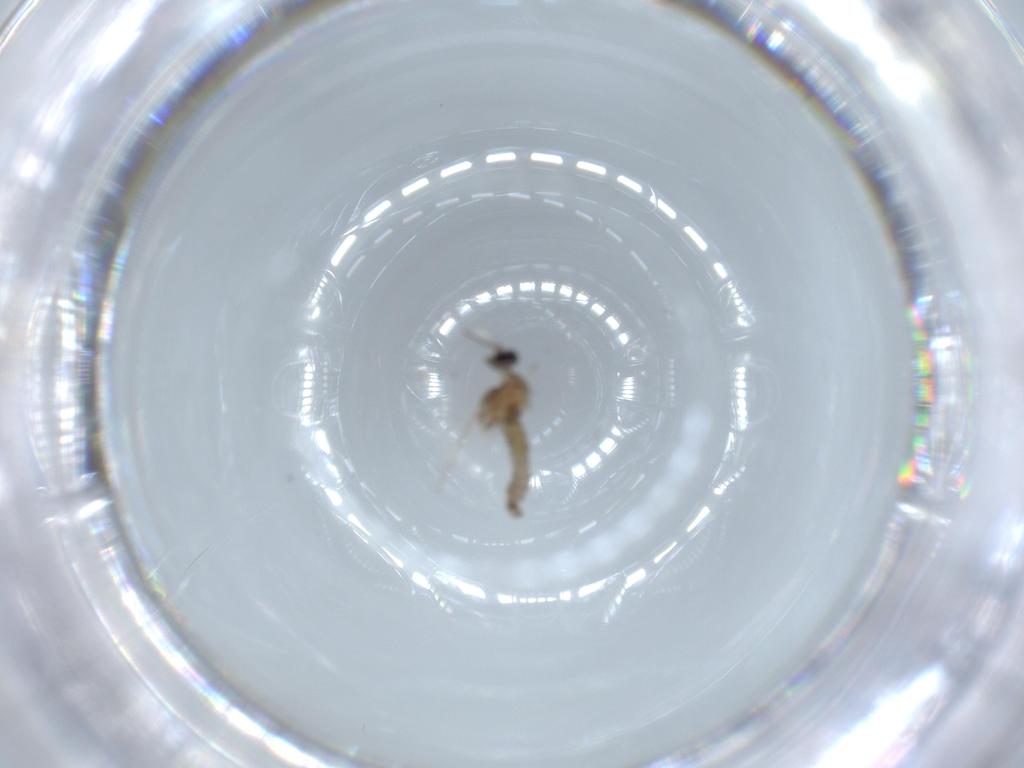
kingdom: Animalia
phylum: Arthropoda
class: Insecta
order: Diptera
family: Cecidomyiidae
